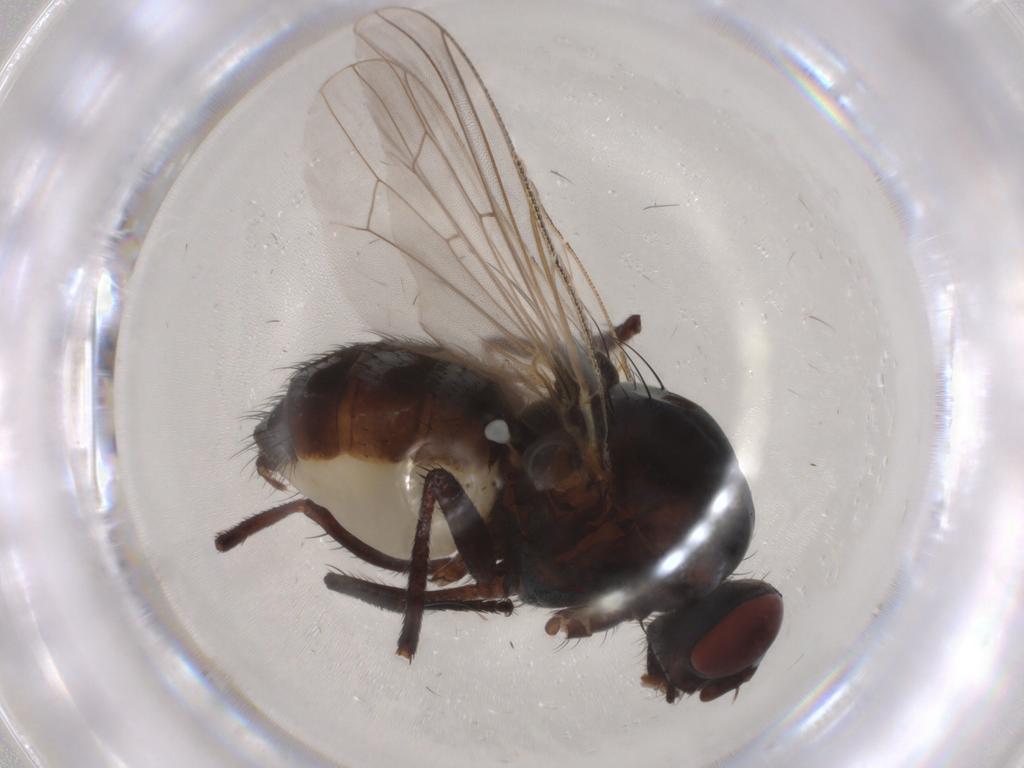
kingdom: Animalia
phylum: Arthropoda
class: Insecta
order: Diptera
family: Anthomyiidae
